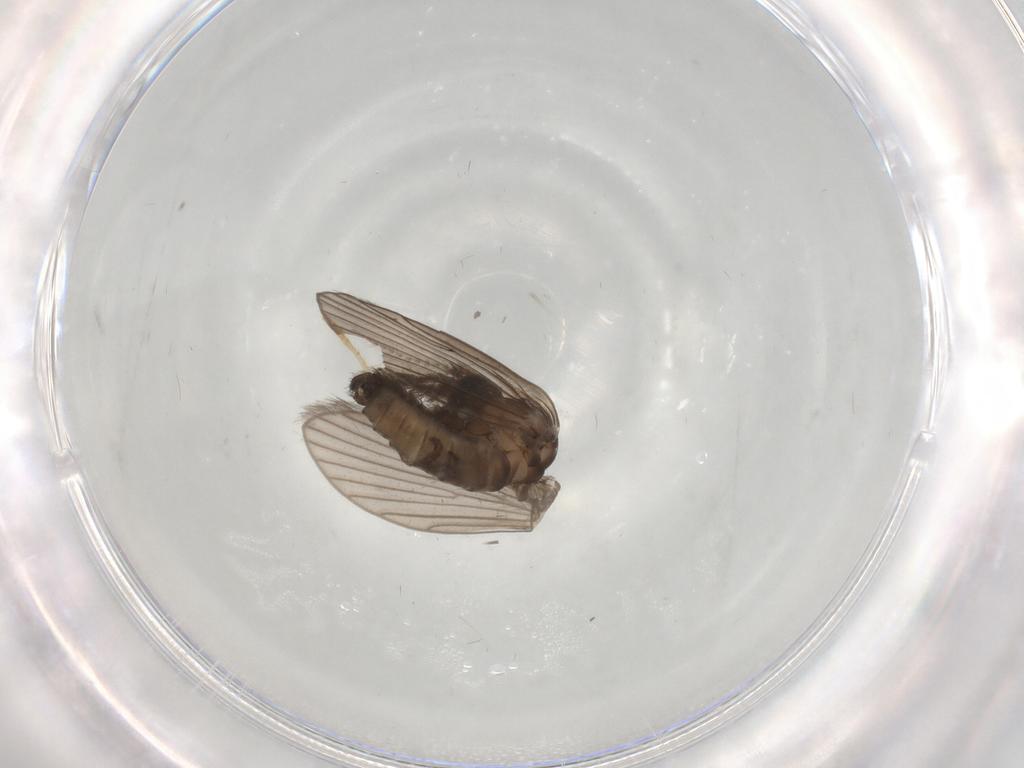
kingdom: Animalia
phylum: Arthropoda
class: Insecta
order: Diptera
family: Psychodidae
